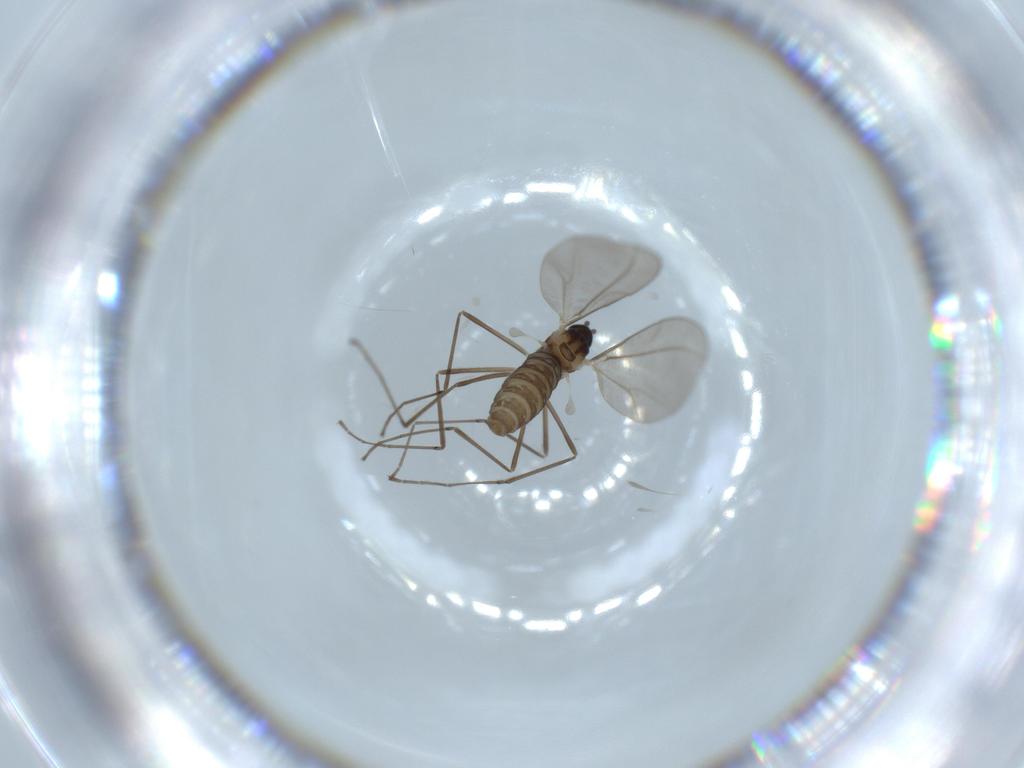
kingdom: Animalia
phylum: Arthropoda
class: Insecta
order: Diptera
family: Cecidomyiidae
